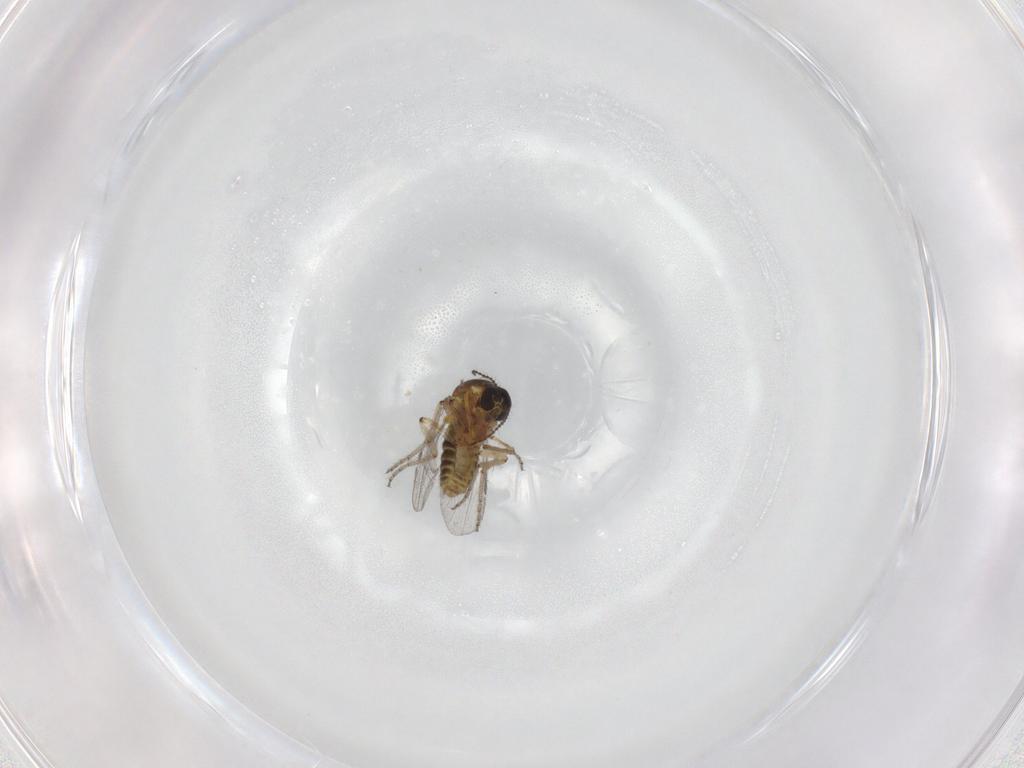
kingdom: Animalia
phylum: Arthropoda
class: Insecta
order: Diptera
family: Ceratopogonidae
